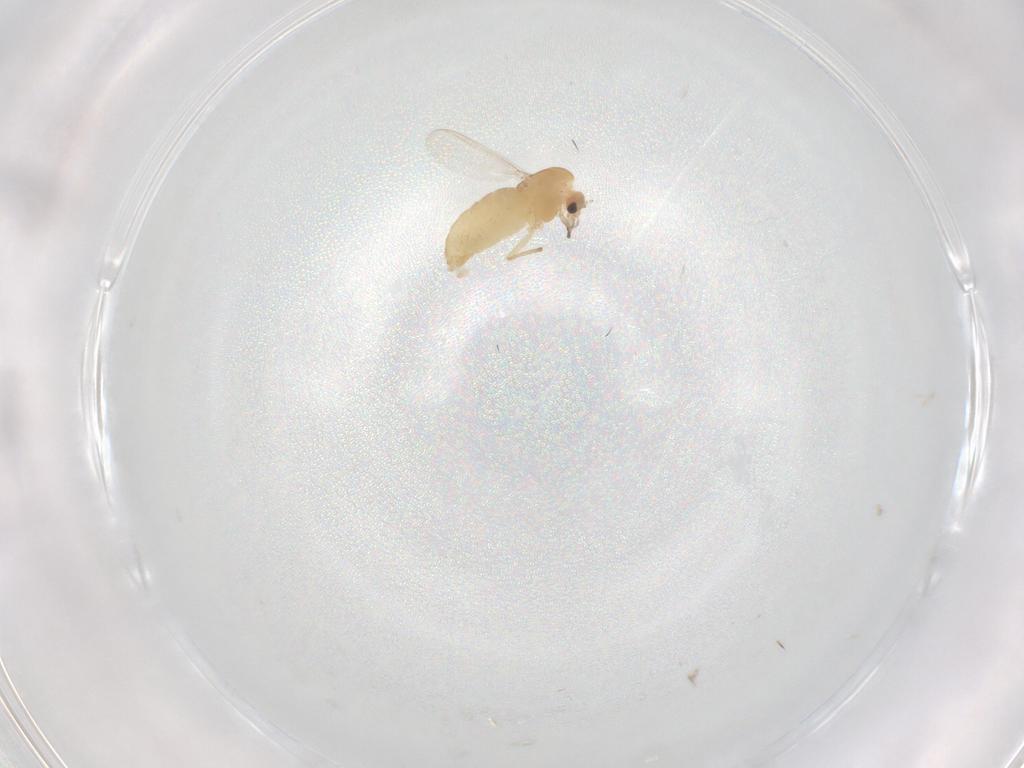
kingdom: Animalia
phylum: Arthropoda
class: Insecta
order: Diptera
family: Chironomidae
